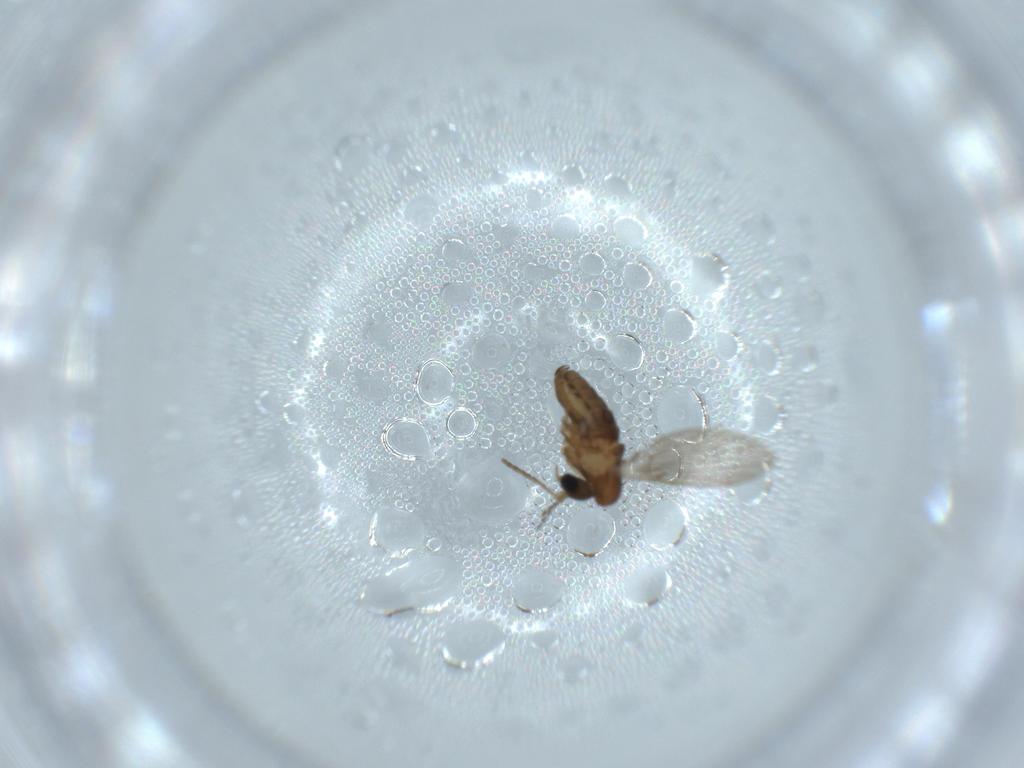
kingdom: Animalia
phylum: Arthropoda
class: Insecta
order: Diptera
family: Psychodidae
